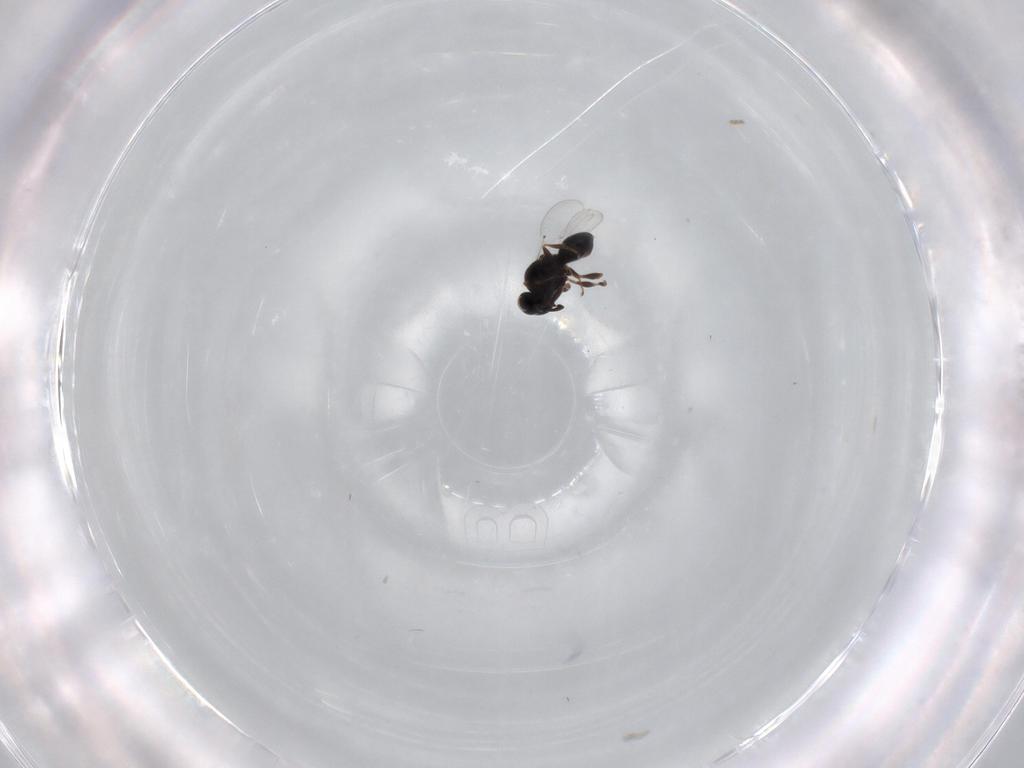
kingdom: Animalia
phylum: Arthropoda
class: Insecta
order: Hymenoptera
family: Platygastridae
